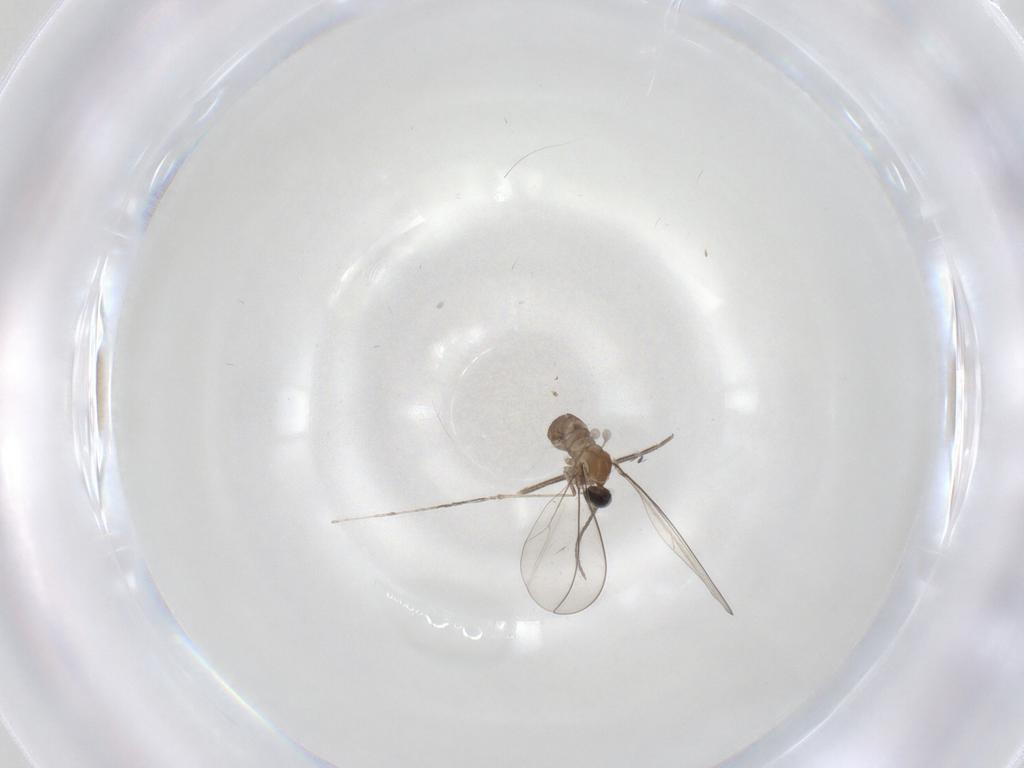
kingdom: Animalia
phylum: Arthropoda
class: Insecta
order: Diptera
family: Cecidomyiidae
